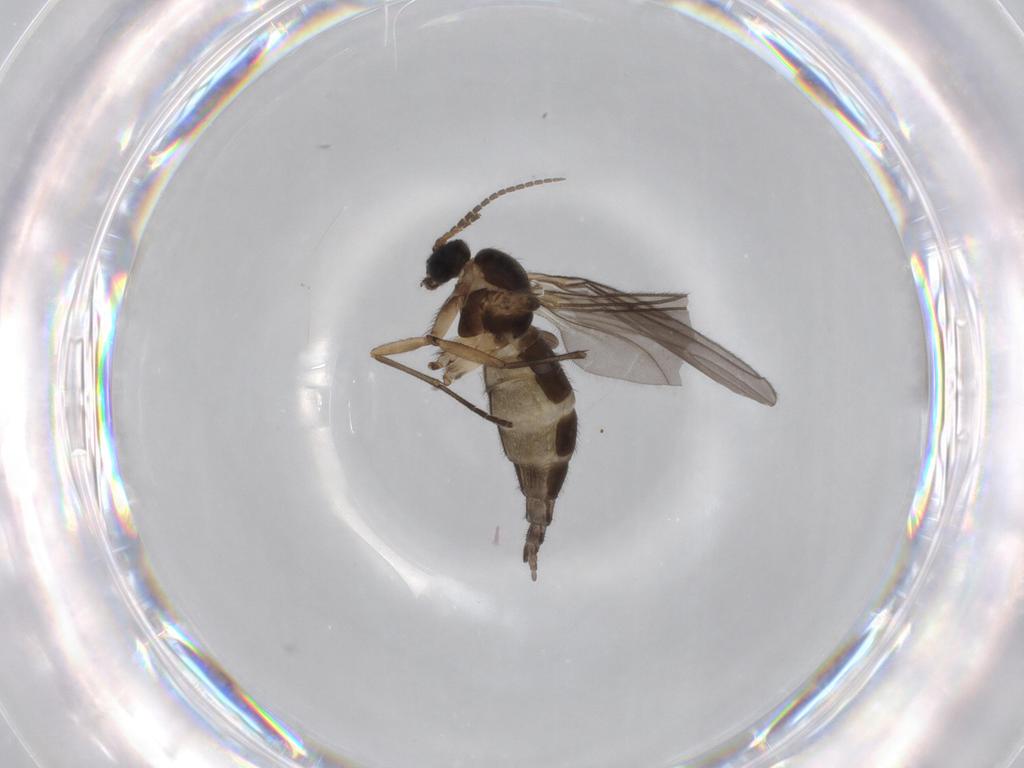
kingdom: Animalia
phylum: Arthropoda
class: Insecta
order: Diptera
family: Sciaridae
